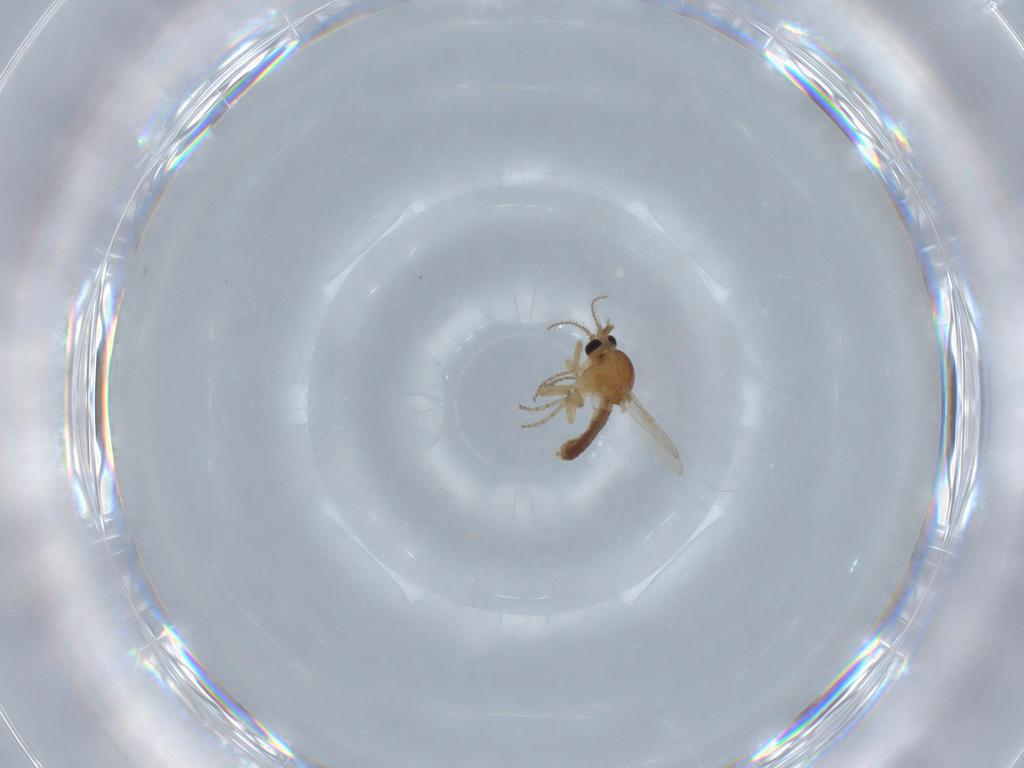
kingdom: Animalia
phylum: Arthropoda
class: Insecta
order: Diptera
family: Ceratopogonidae
